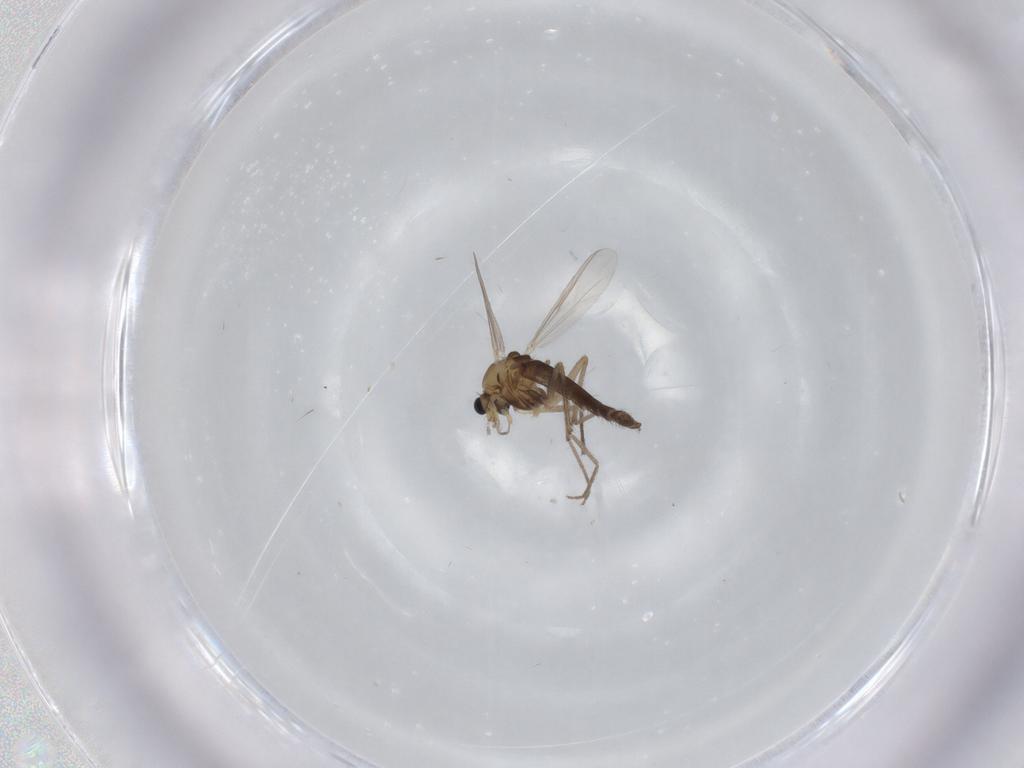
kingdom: Animalia
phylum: Arthropoda
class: Insecta
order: Diptera
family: Chironomidae
